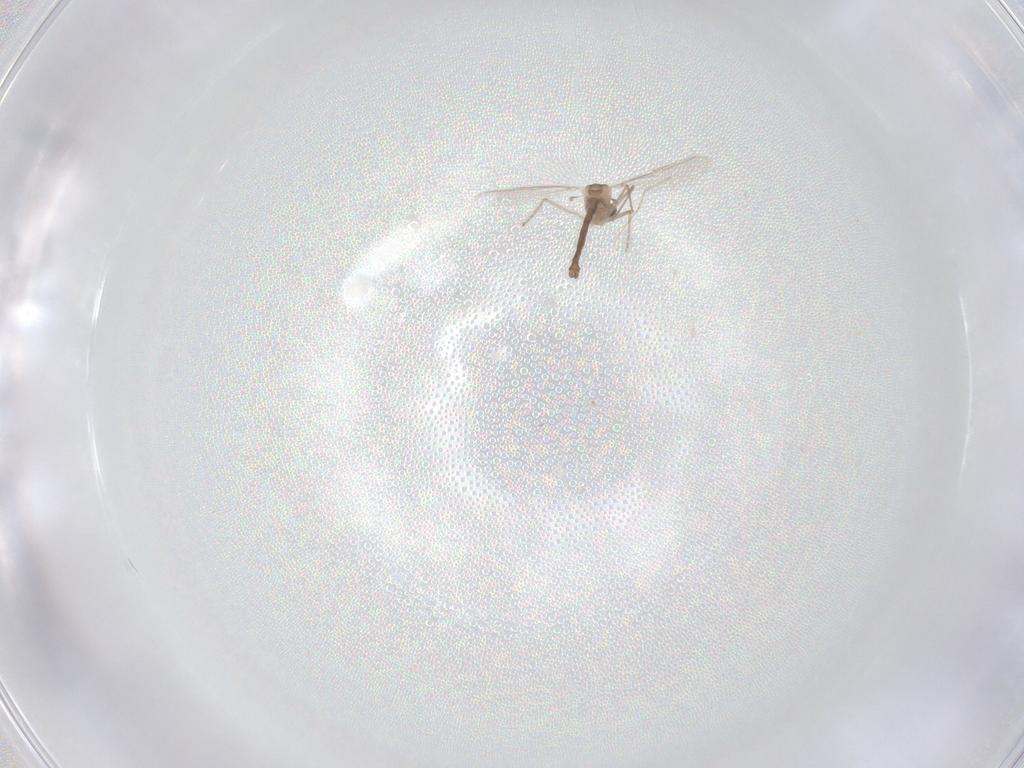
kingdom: Animalia
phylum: Arthropoda
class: Insecta
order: Diptera
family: Chironomidae
